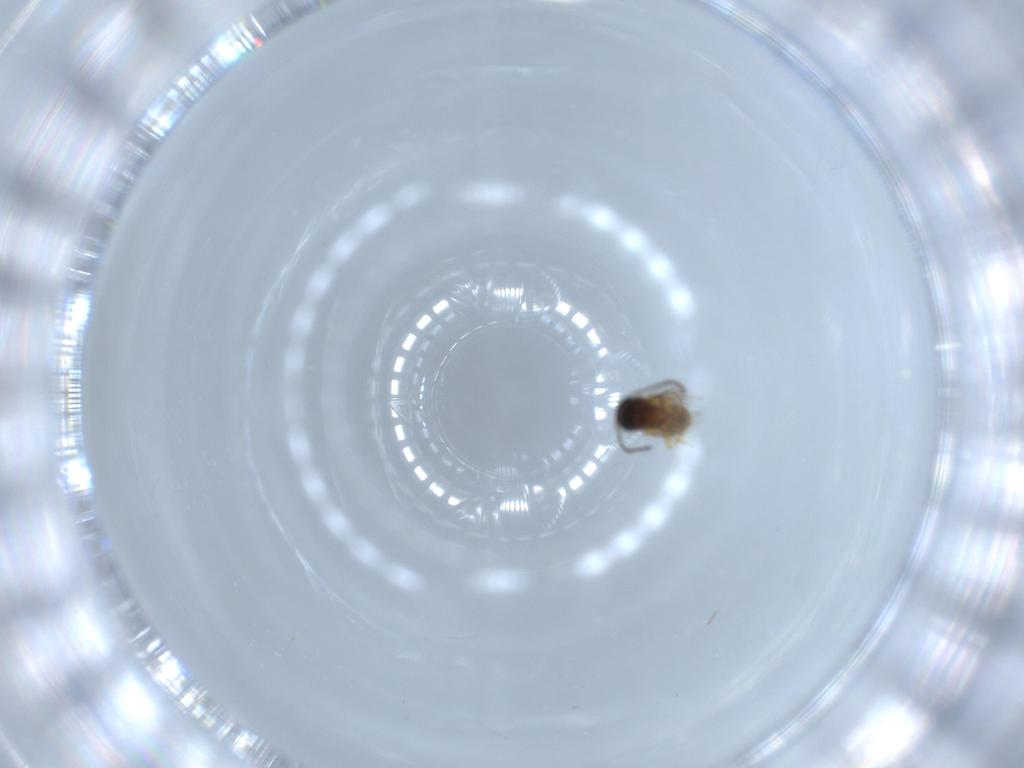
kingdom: Animalia
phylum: Arthropoda
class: Insecta
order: Hymenoptera
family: Scelionidae
